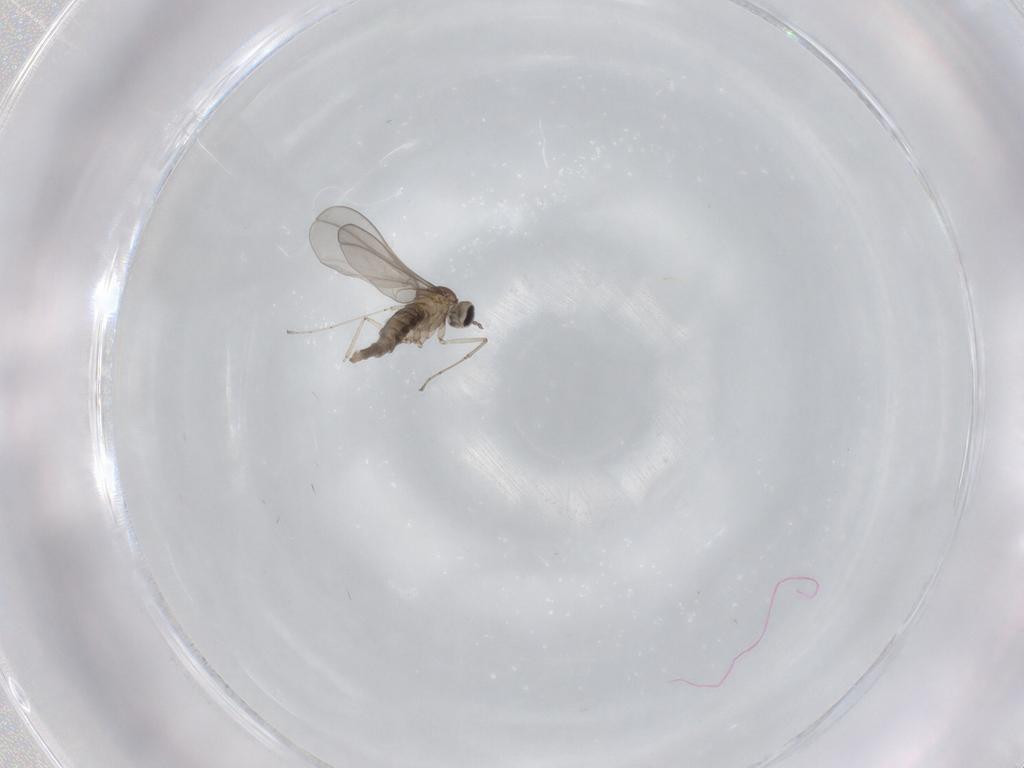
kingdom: Animalia
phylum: Arthropoda
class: Insecta
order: Diptera
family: Cecidomyiidae
